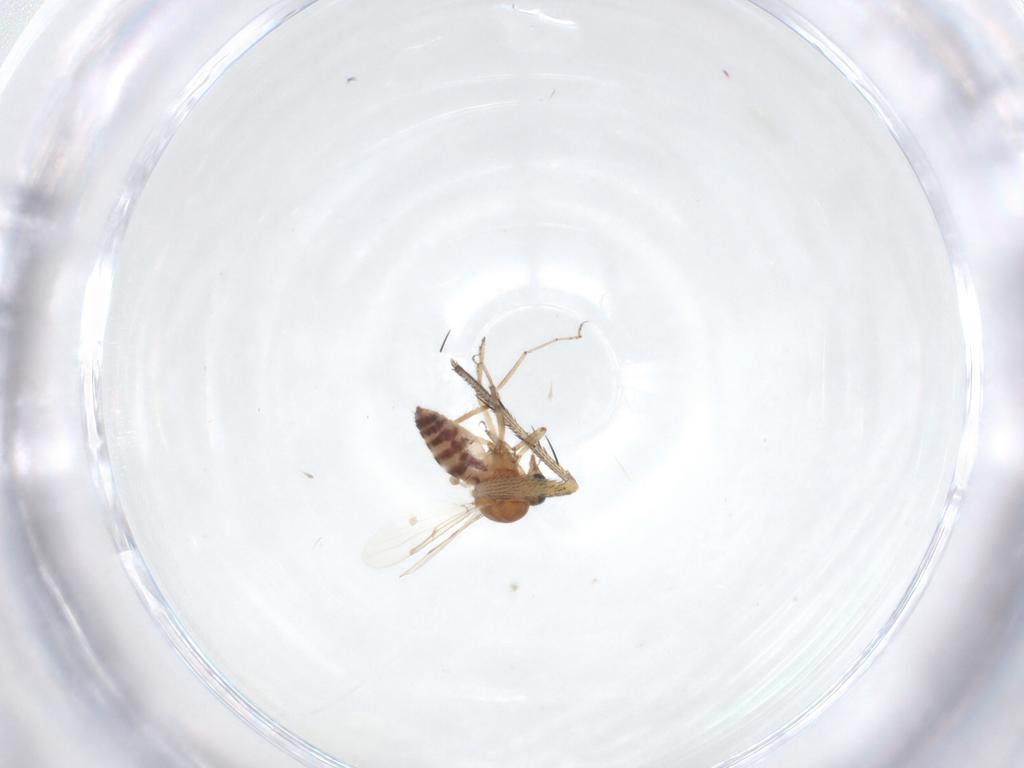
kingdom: Animalia
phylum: Arthropoda
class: Insecta
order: Diptera
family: Ceratopogonidae
